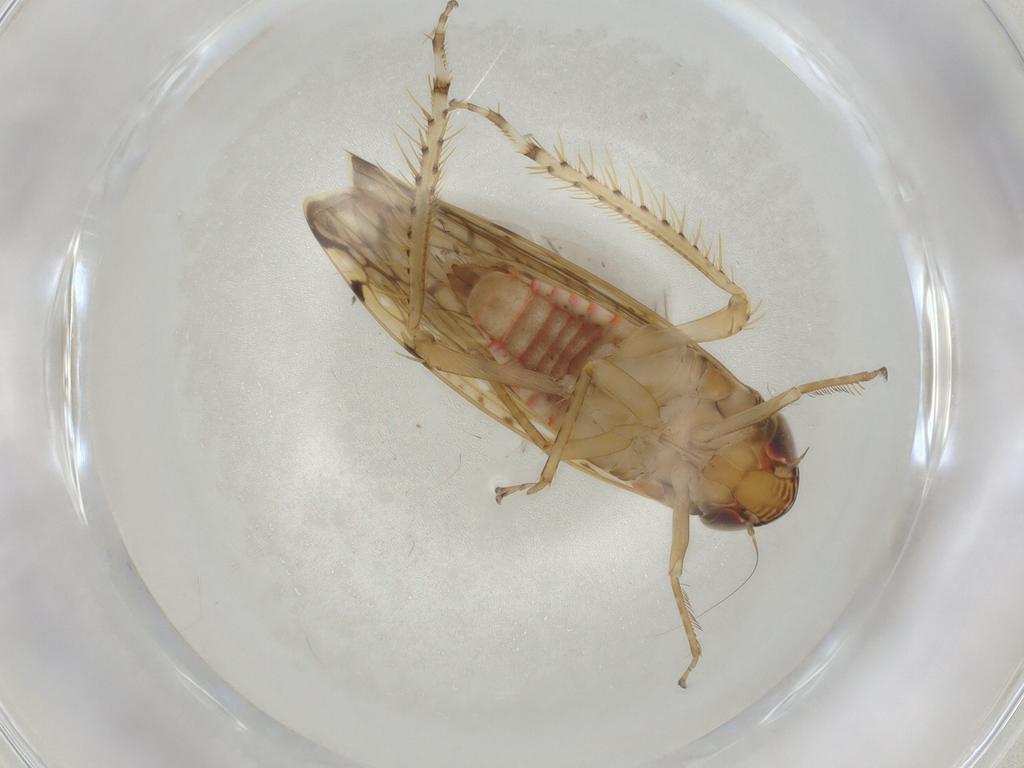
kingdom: Animalia
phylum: Arthropoda
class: Insecta
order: Hemiptera
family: Cicadellidae
